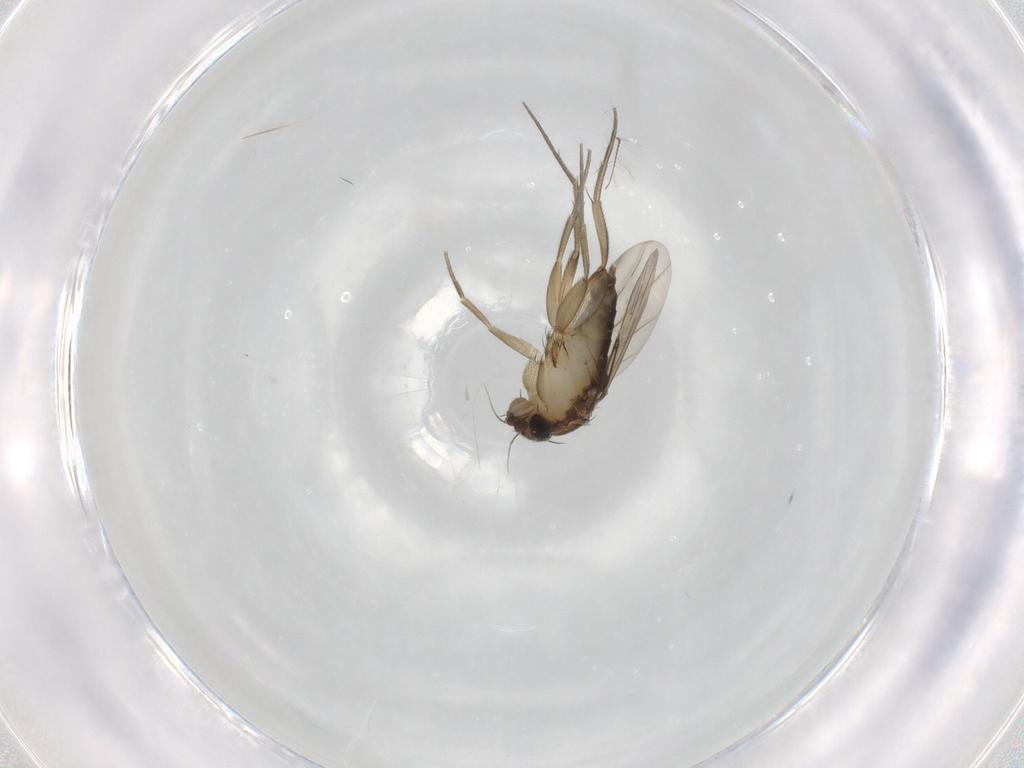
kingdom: Animalia
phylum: Arthropoda
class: Insecta
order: Diptera
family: Phoridae
